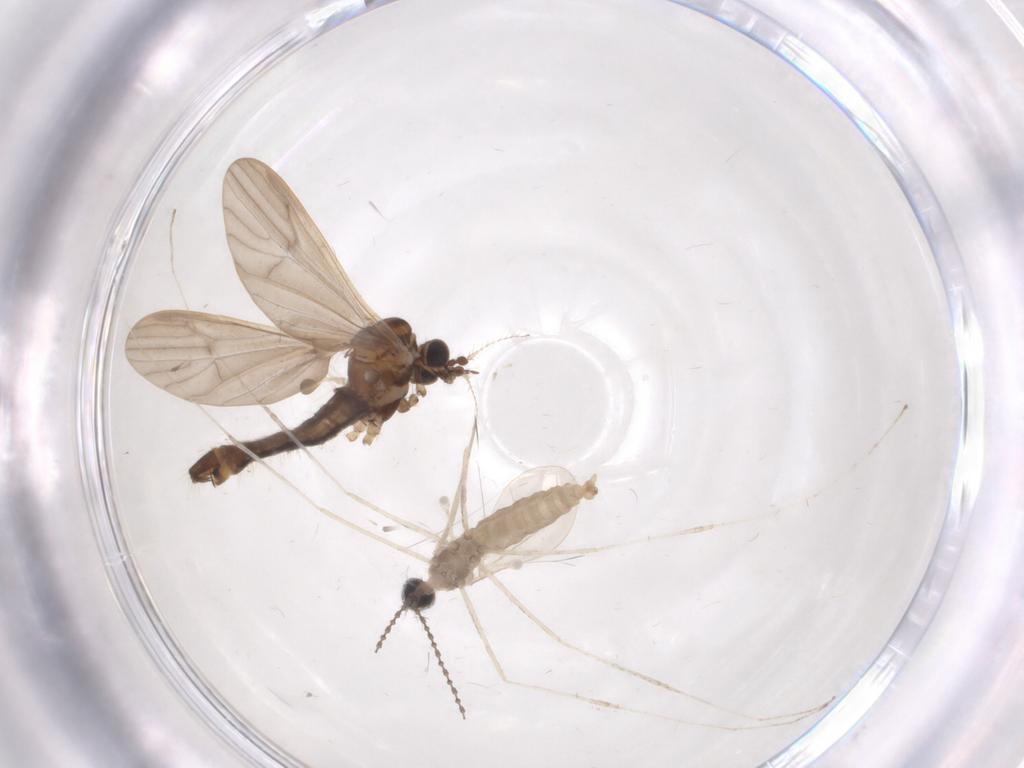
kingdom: Animalia
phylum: Arthropoda
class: Insecta
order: Diptera
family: Limoniidae
